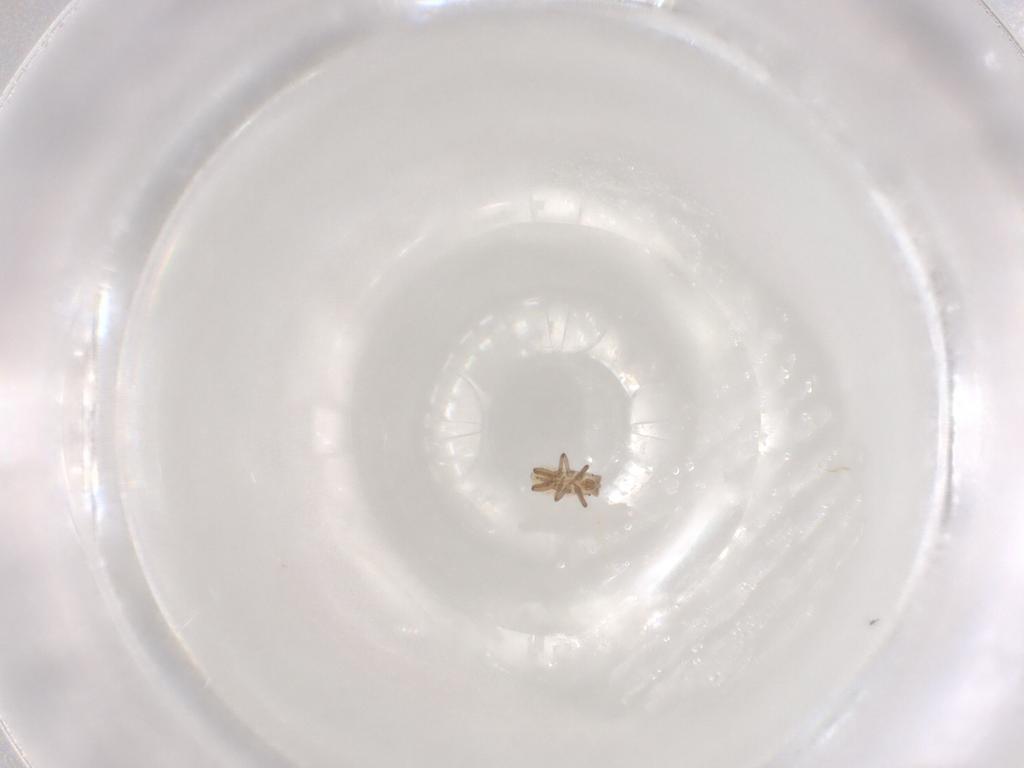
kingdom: Animalia
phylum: Arthropoda
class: Insecta
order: Hemiptera
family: Aphididae
